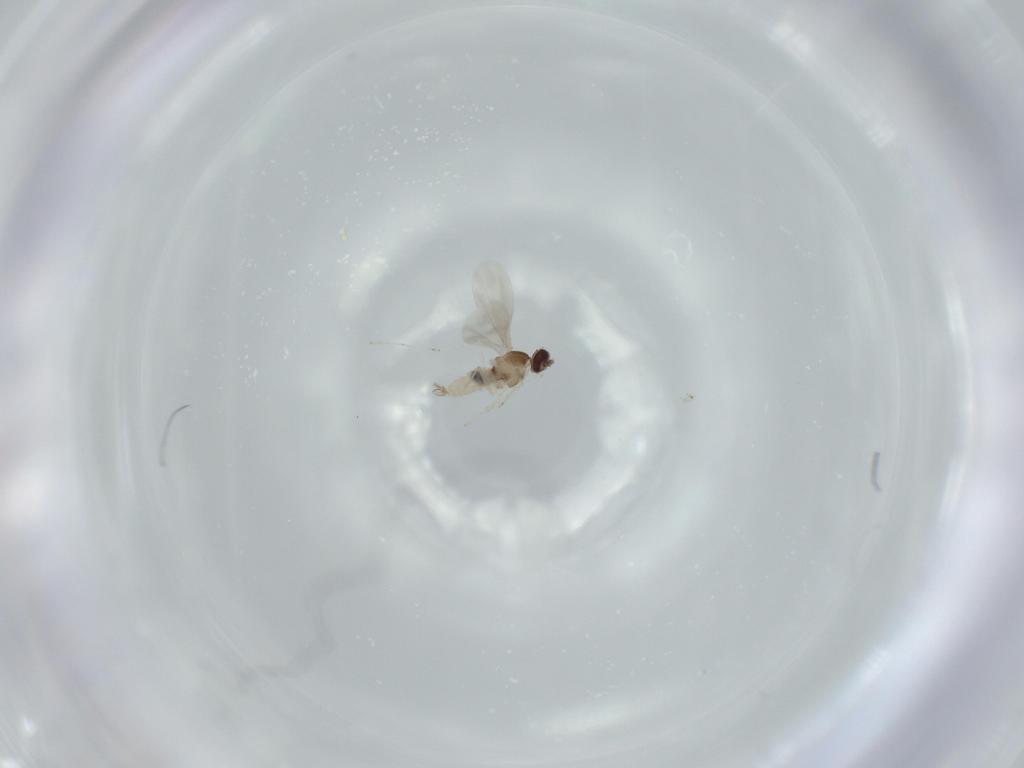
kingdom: Animalia
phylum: Arthropoda
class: Insecta
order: Diptera
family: Cecidomyiidae
